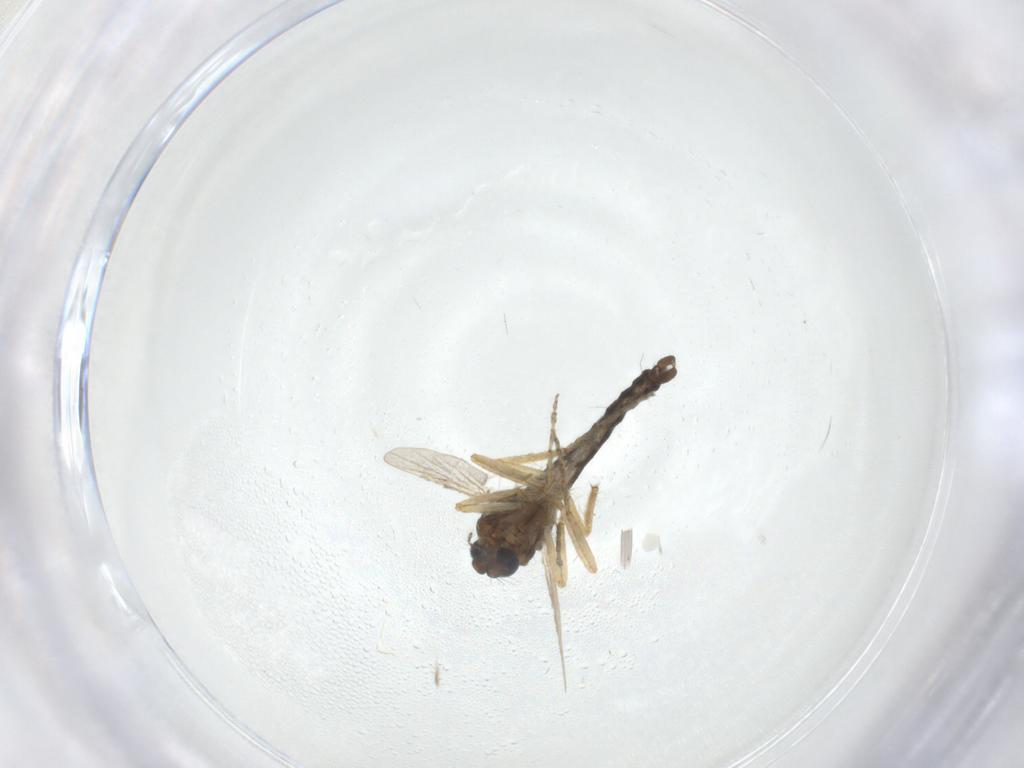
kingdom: Animalia
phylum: Arthropoda
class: Insecta
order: Diptera
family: Ceratopogonidae
